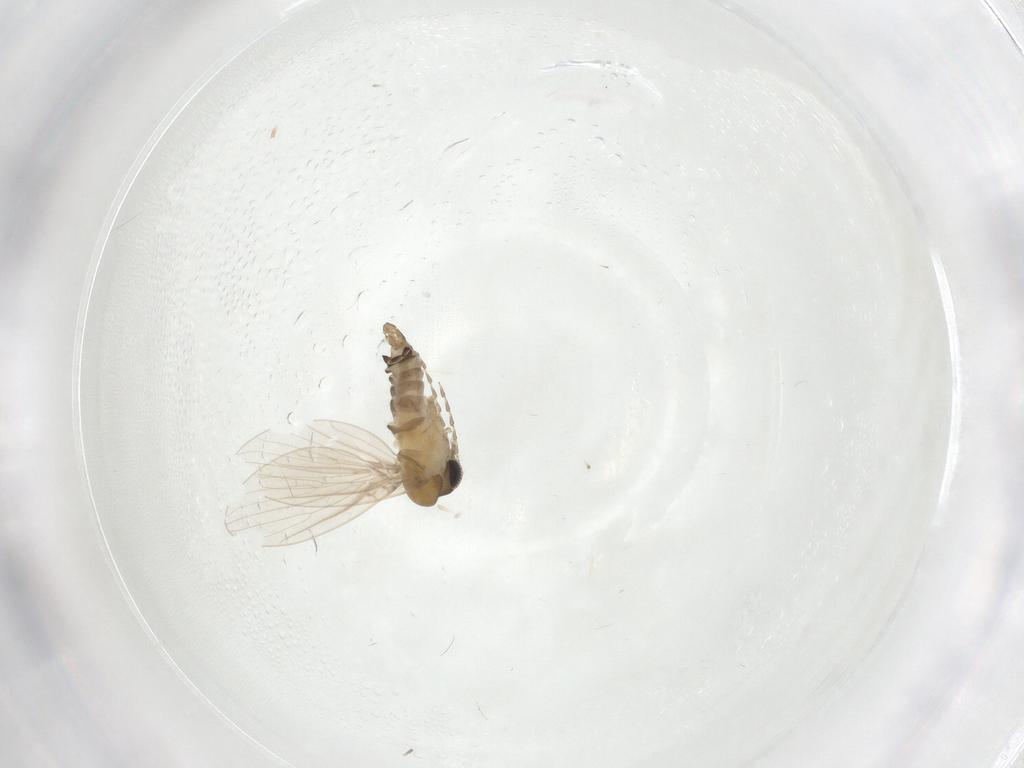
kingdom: Animalia
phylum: Arthropoda
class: Insecta
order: Diptera
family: Psychodidae
